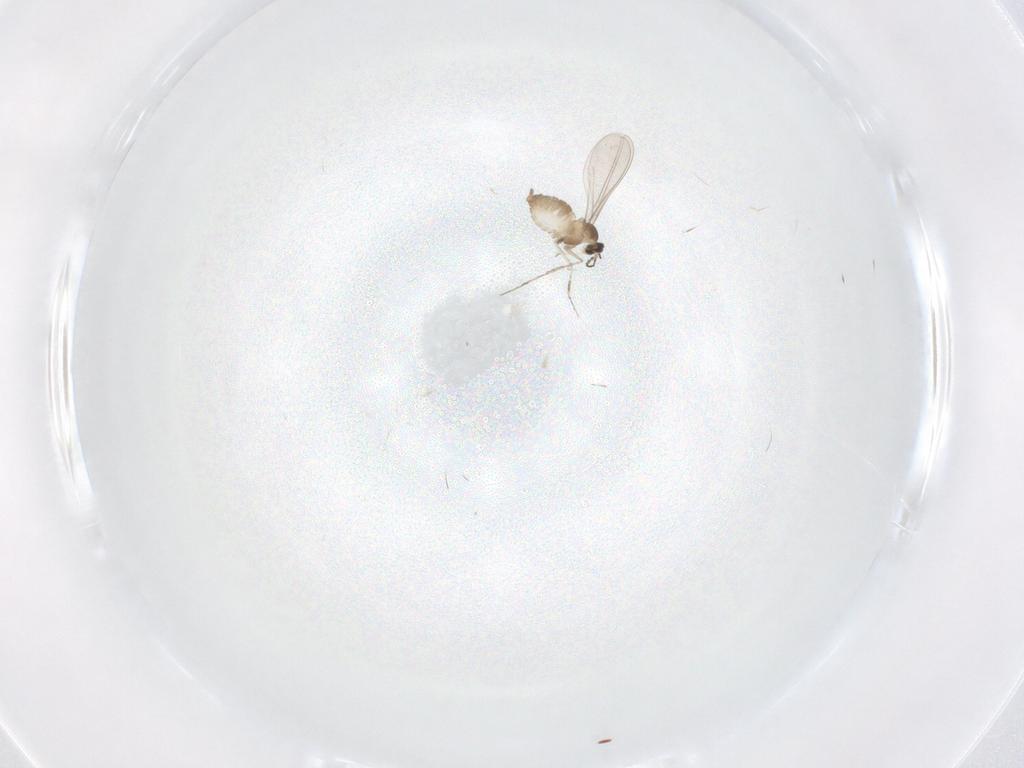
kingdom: Animalia
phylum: Arthropoda
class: Insecta
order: Diptera
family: Cecidomyiidae
